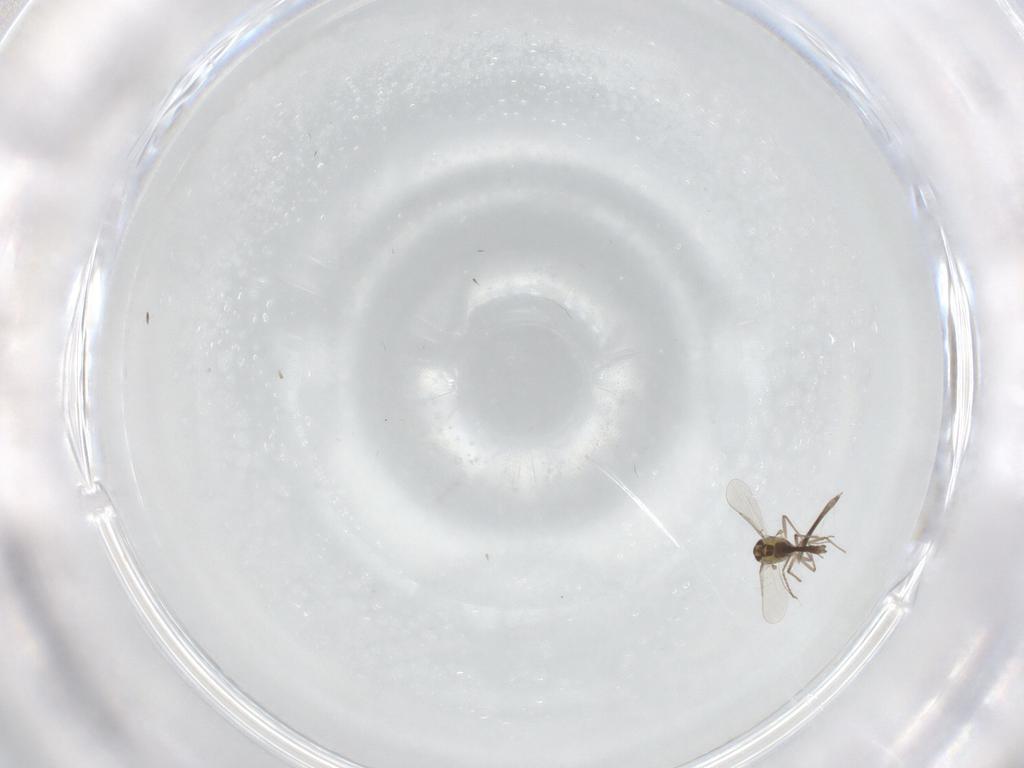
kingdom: Animalia
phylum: Arthropoda
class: Insecta
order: Diptera
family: Chironomidae
